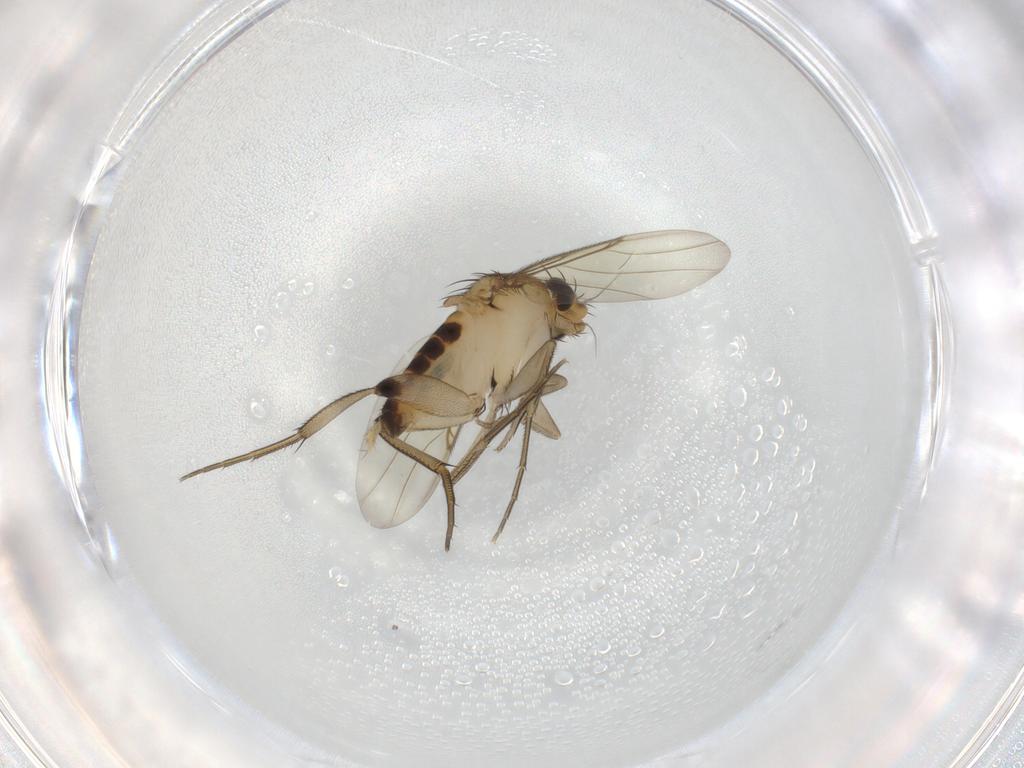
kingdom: Animalia
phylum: Arthropoda
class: Insecta
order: Diptera
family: Phoridae
